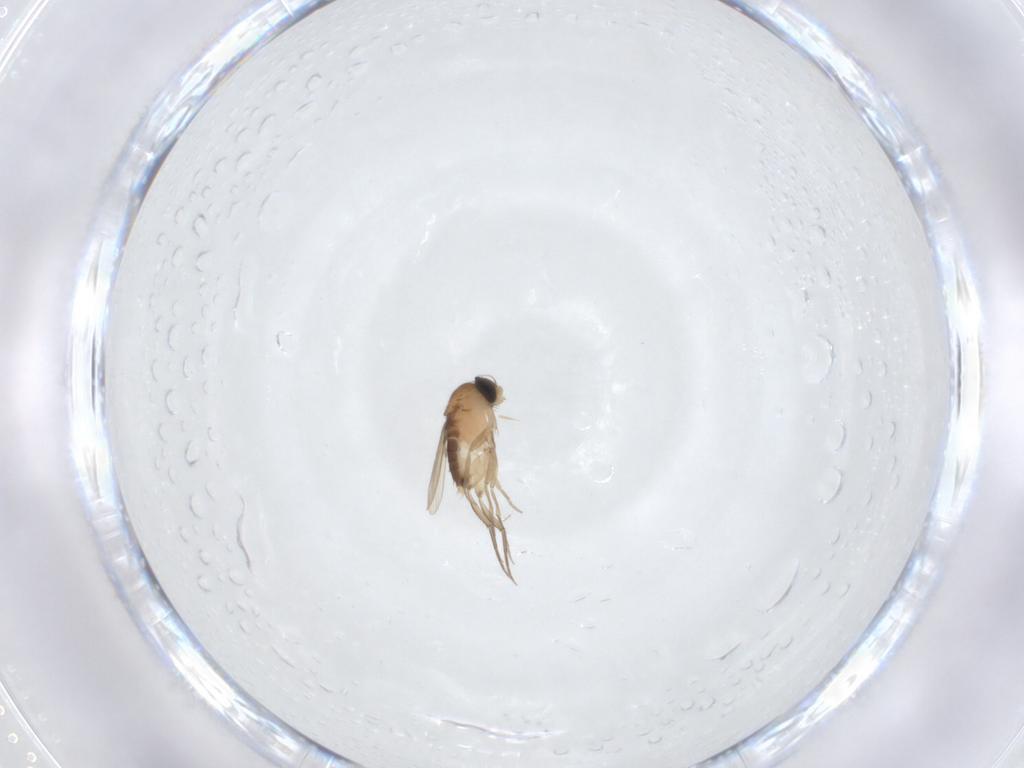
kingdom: Animalia
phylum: Arthropoda
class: Insecta
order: Diptera
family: Phoridae
